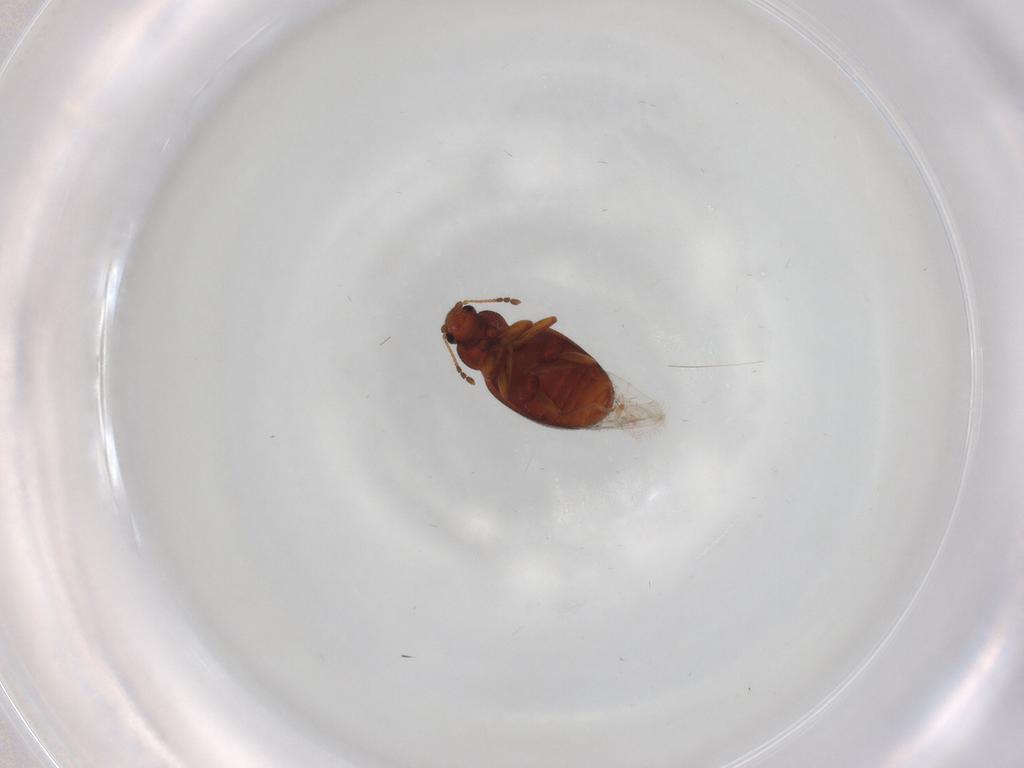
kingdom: Animalia
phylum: Arthropoda
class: Insecta
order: Coleoptera
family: Latridiidae
